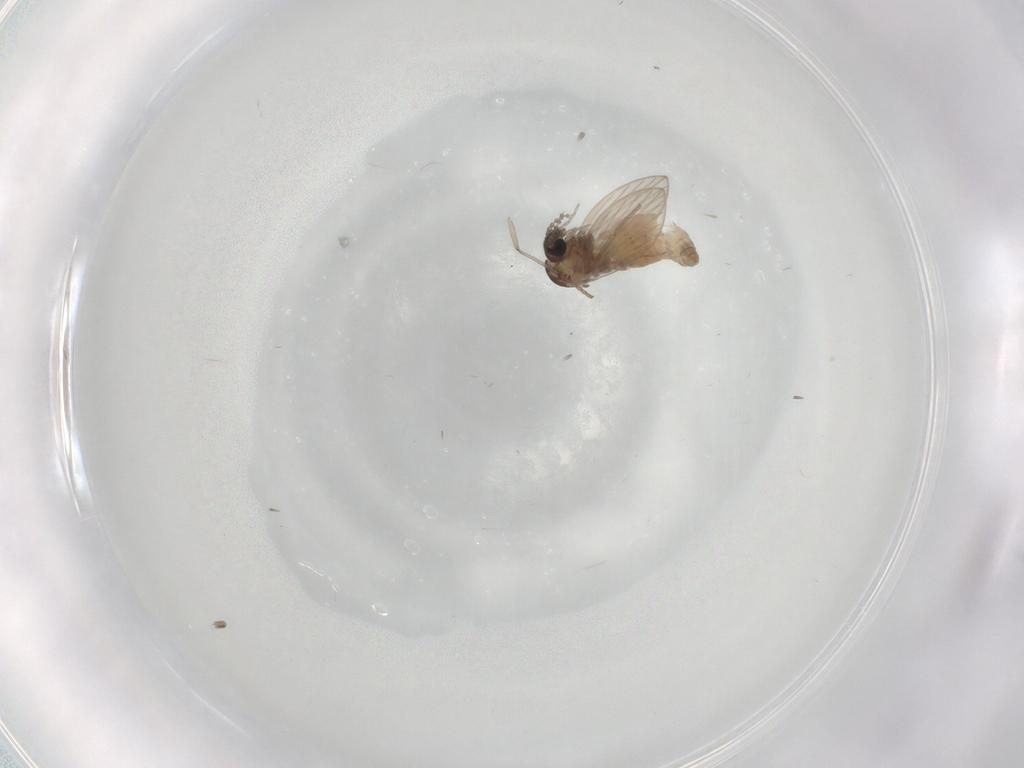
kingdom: Animalia
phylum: Arthropoda
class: Insecta
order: Diptera
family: Psychodidae
